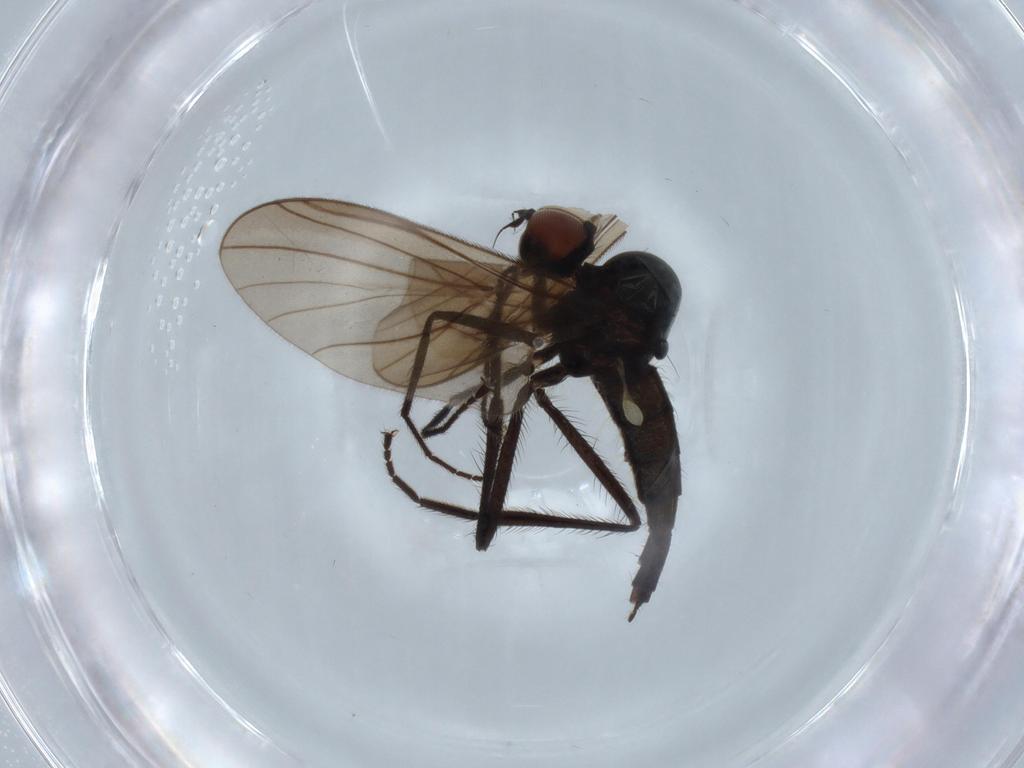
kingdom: Animalia
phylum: Arthropoda
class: Insecta
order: Diptera
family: Hybotidae
